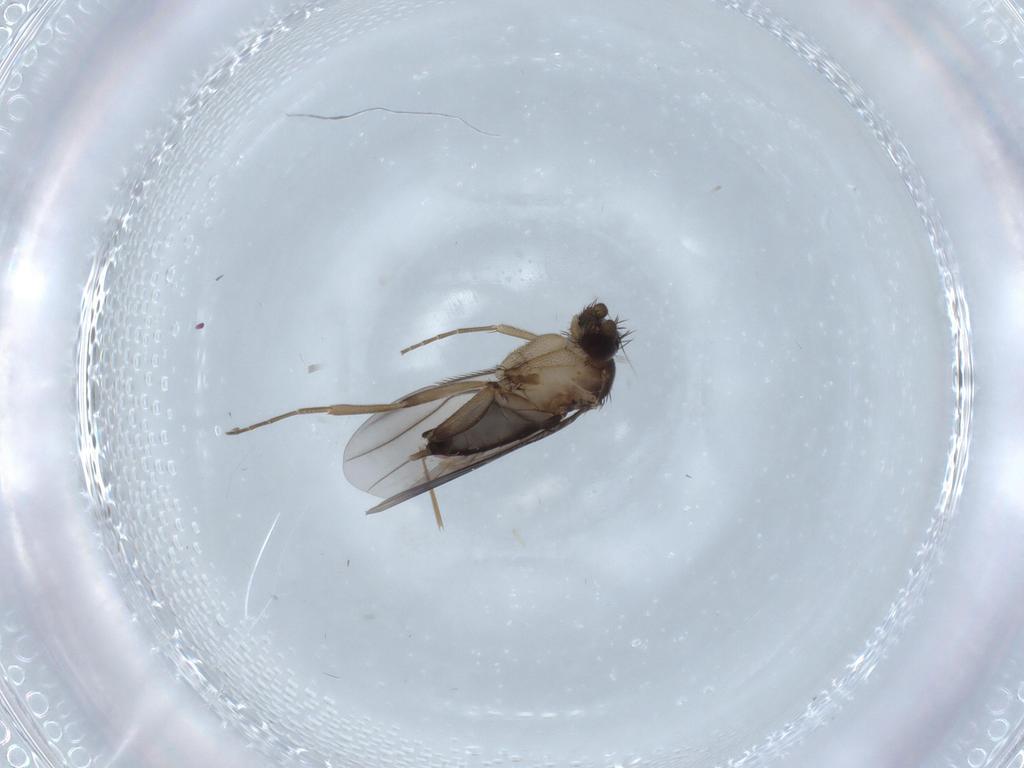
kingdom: Animalia
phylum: Arthropoda
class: Insecta
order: Diptera
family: Phoridae
